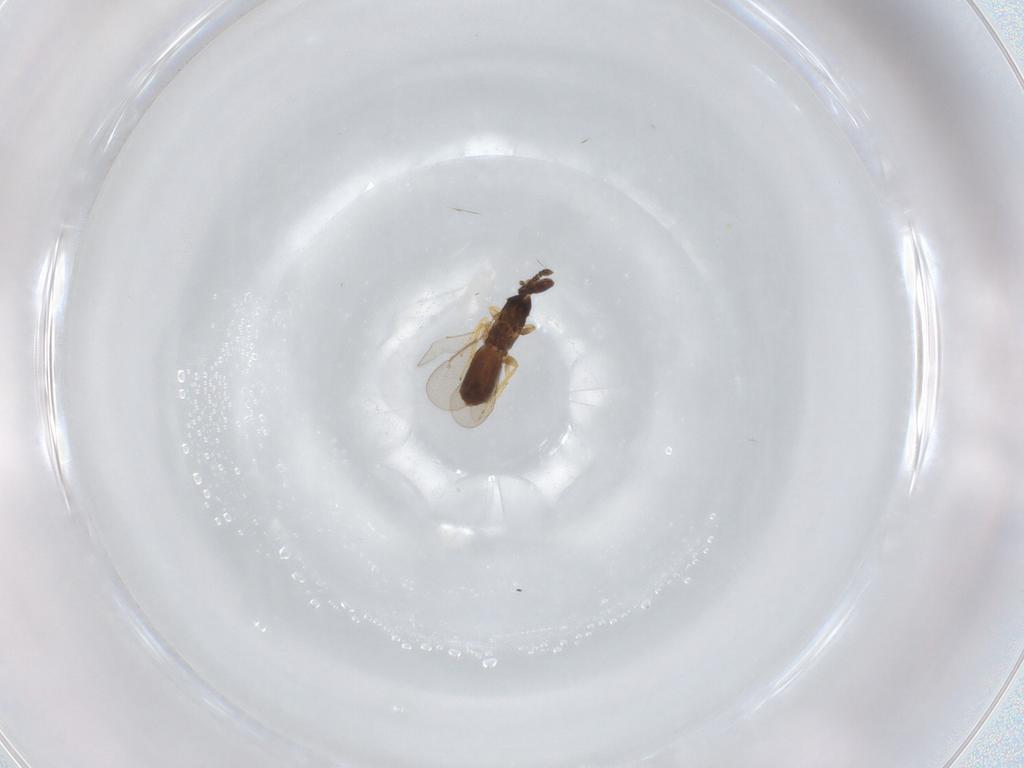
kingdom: Animalia
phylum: Arthropoda
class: Insecta
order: Hymenoptera
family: Platygastridae
